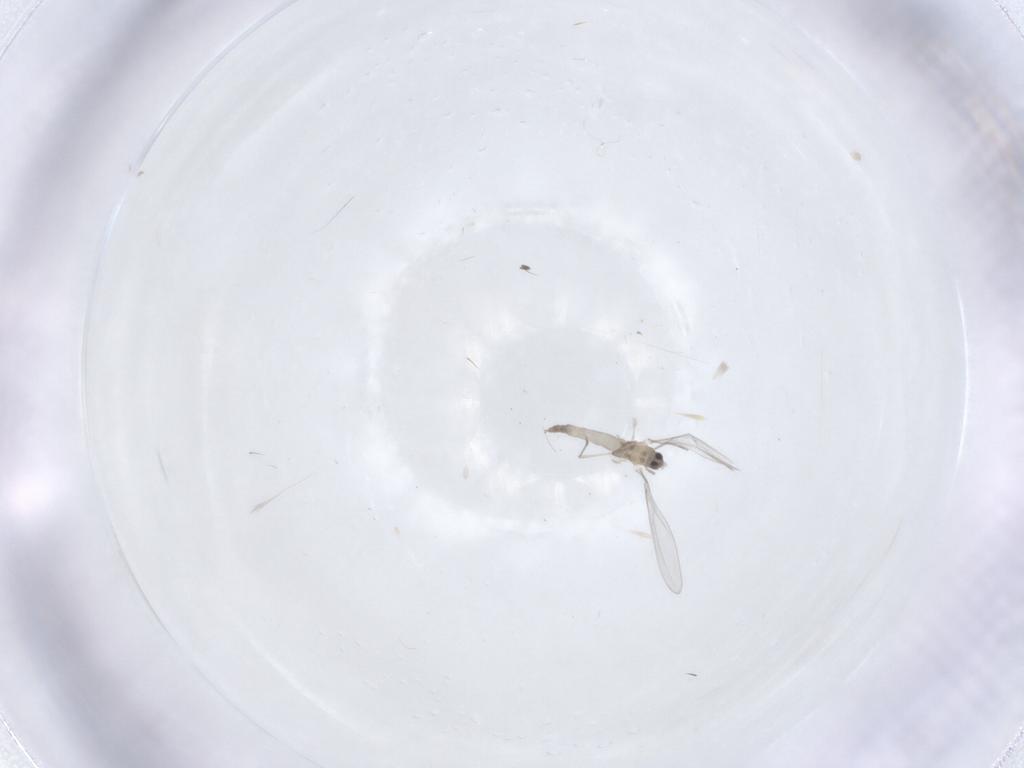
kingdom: Animalia
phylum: Arthropoda
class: Insecta
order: Diptera
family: Cecidomyiidae
